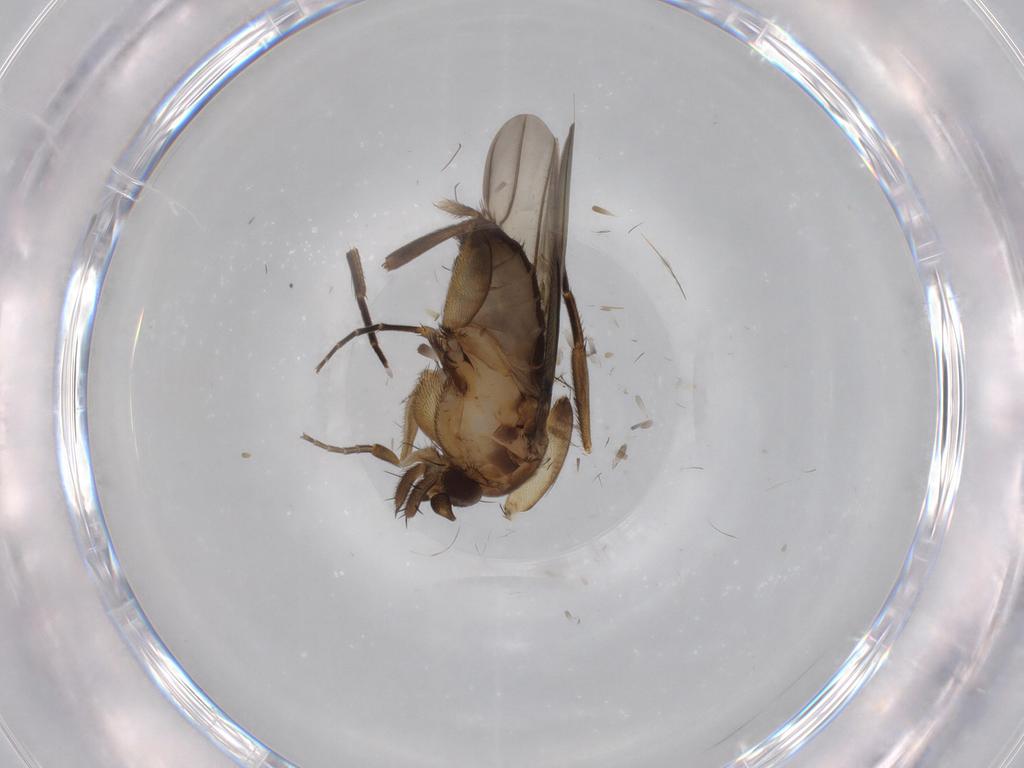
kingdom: Animalia
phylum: Arthropoda
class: Insecta
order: Diptera
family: Phoridae
